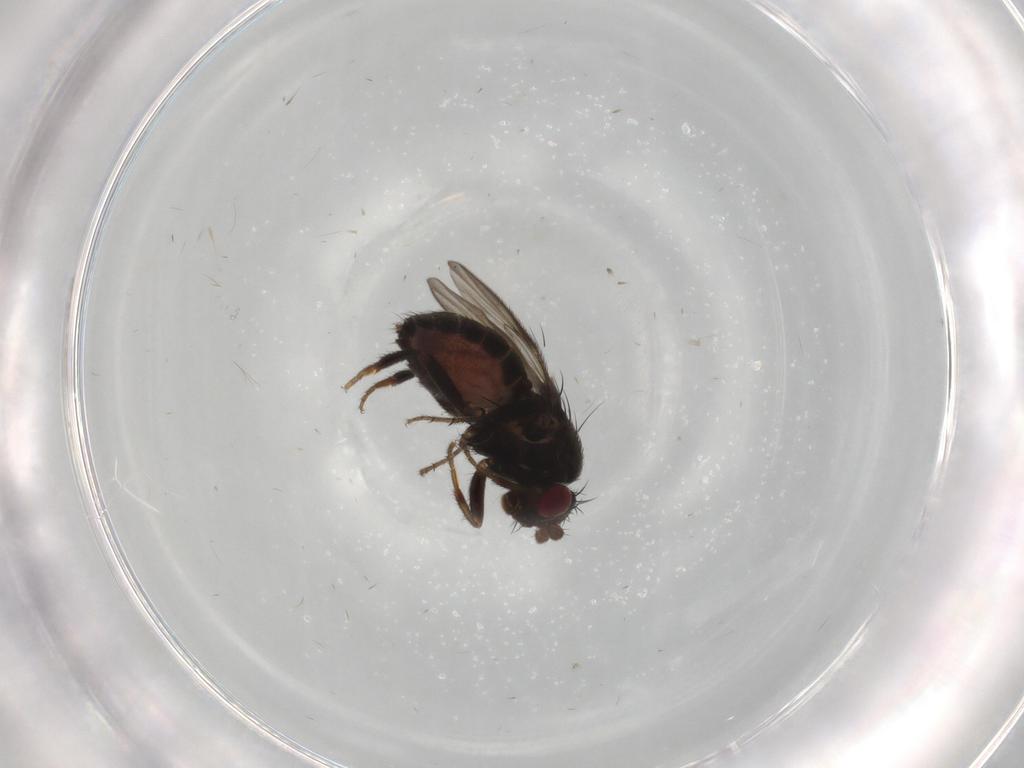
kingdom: Animalia
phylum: Arthropoda
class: Insecta
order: Diptera
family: Sphaeroceridae
